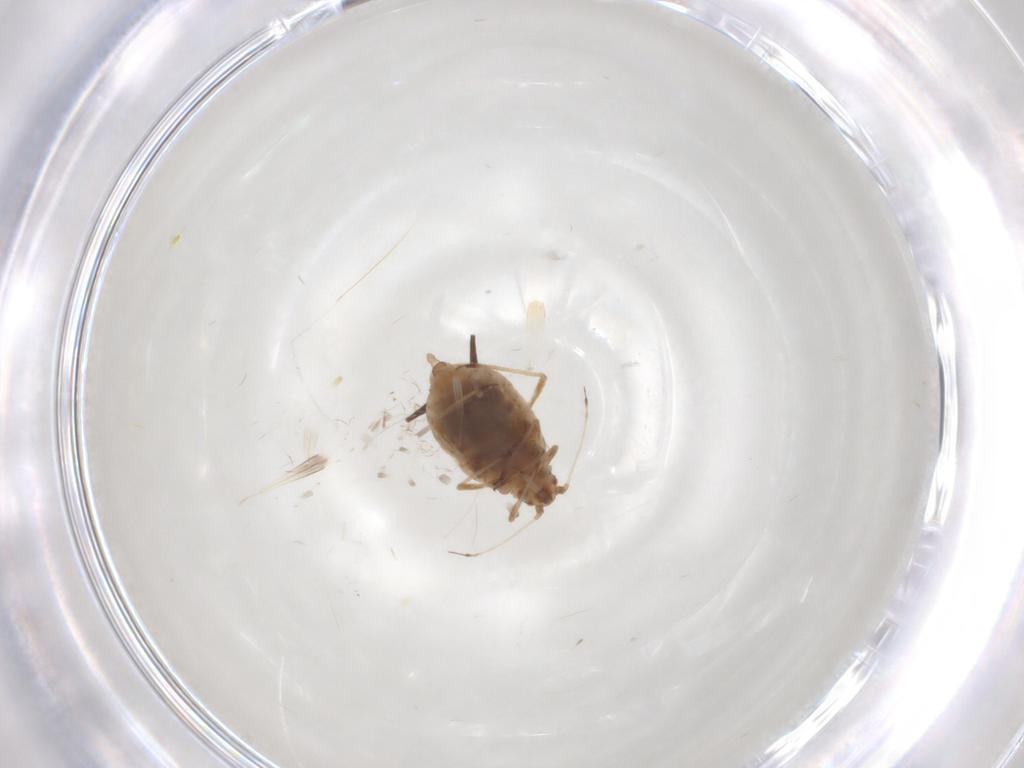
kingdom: Animalia
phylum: Arthropoda
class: Insecta
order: Hemiptera
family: Aphididae
